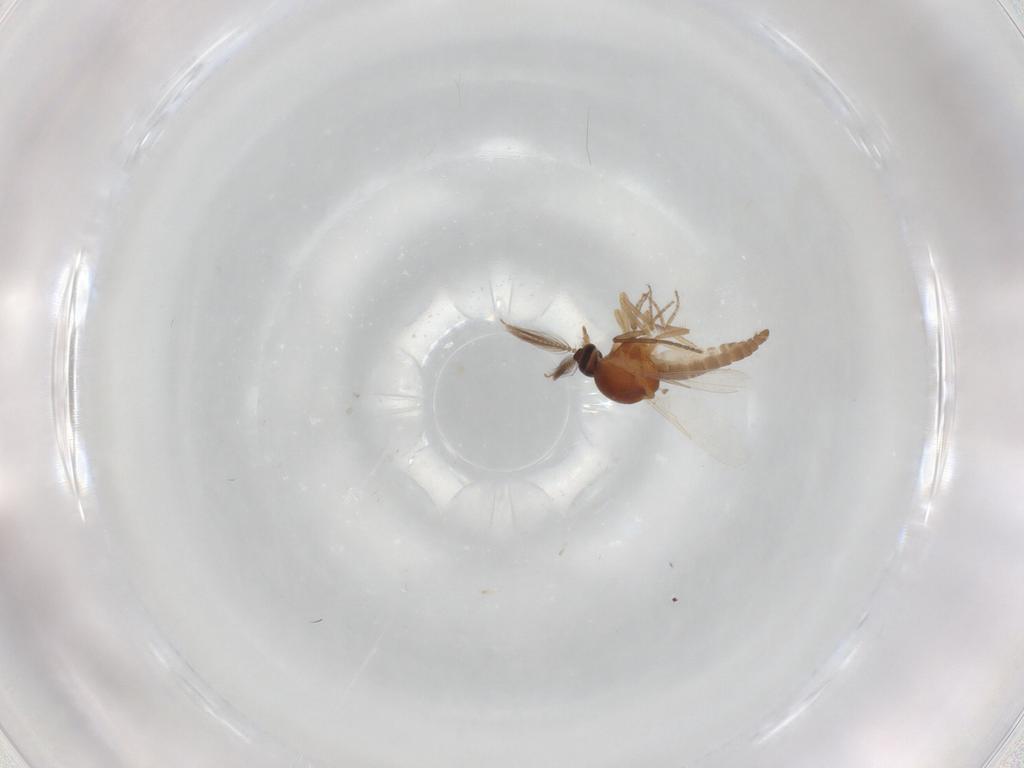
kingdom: Animalia
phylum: Arthropoda
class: Insecta
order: Diptera
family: Ceratopogonidae
